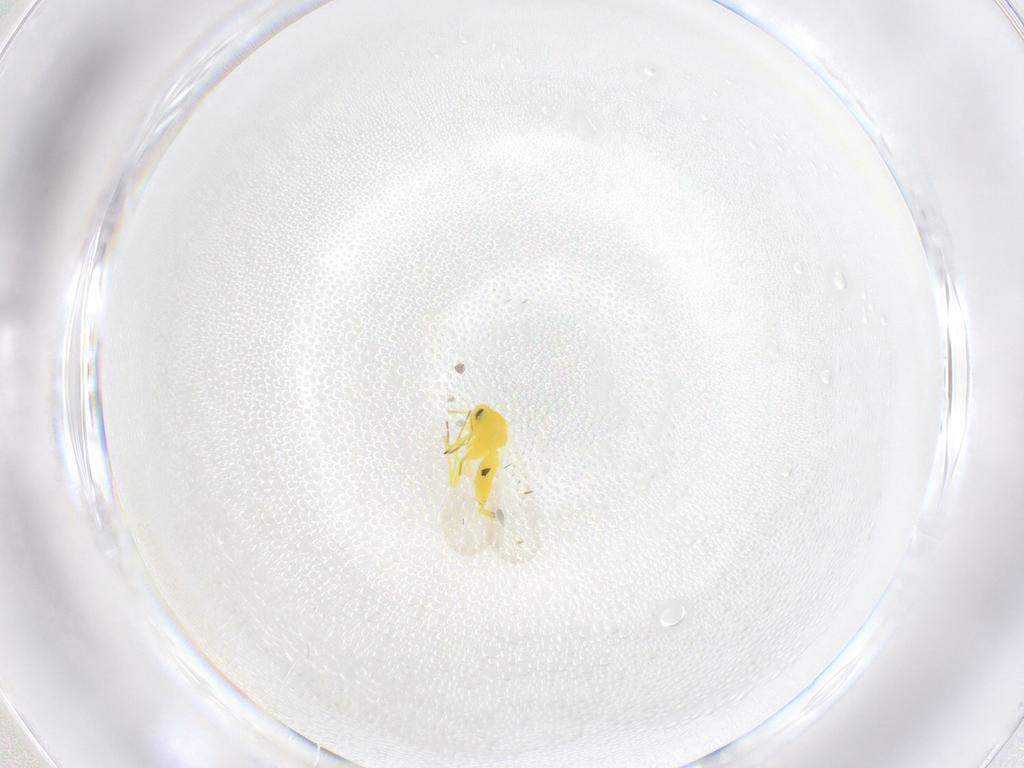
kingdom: Animalia
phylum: Arthropoda
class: Insecta
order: Hemiptera
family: Aleyrodidae
